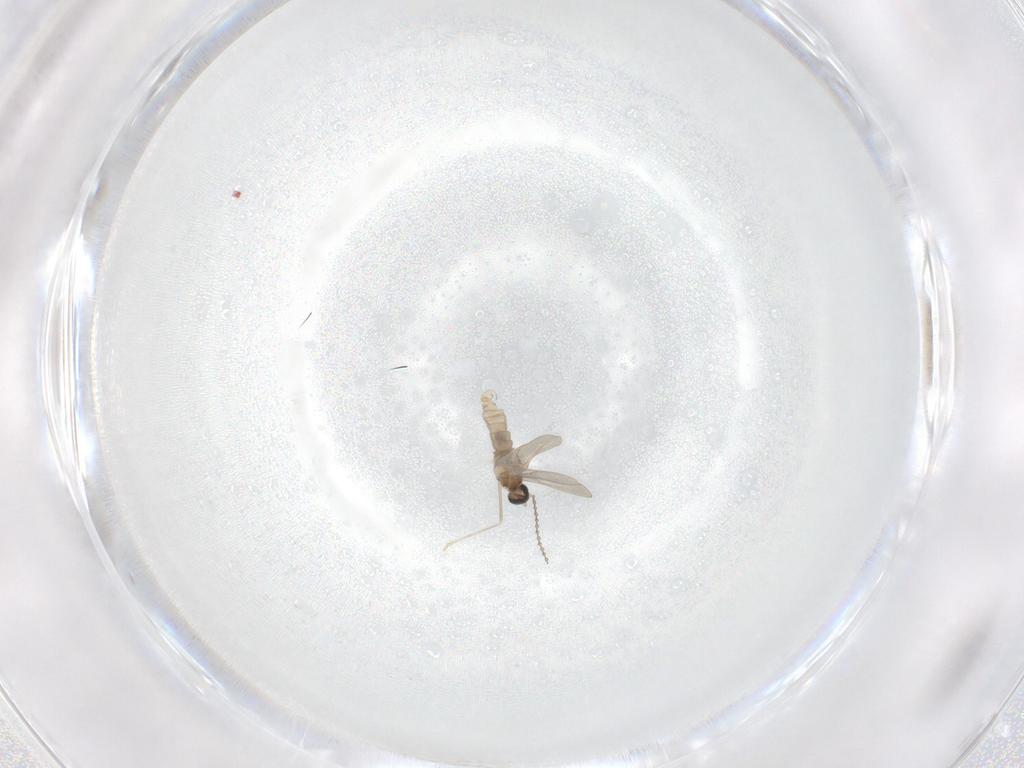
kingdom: Animalia
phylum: Arthropoda
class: Insecta
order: Diptera
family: Cecidomyiidae
